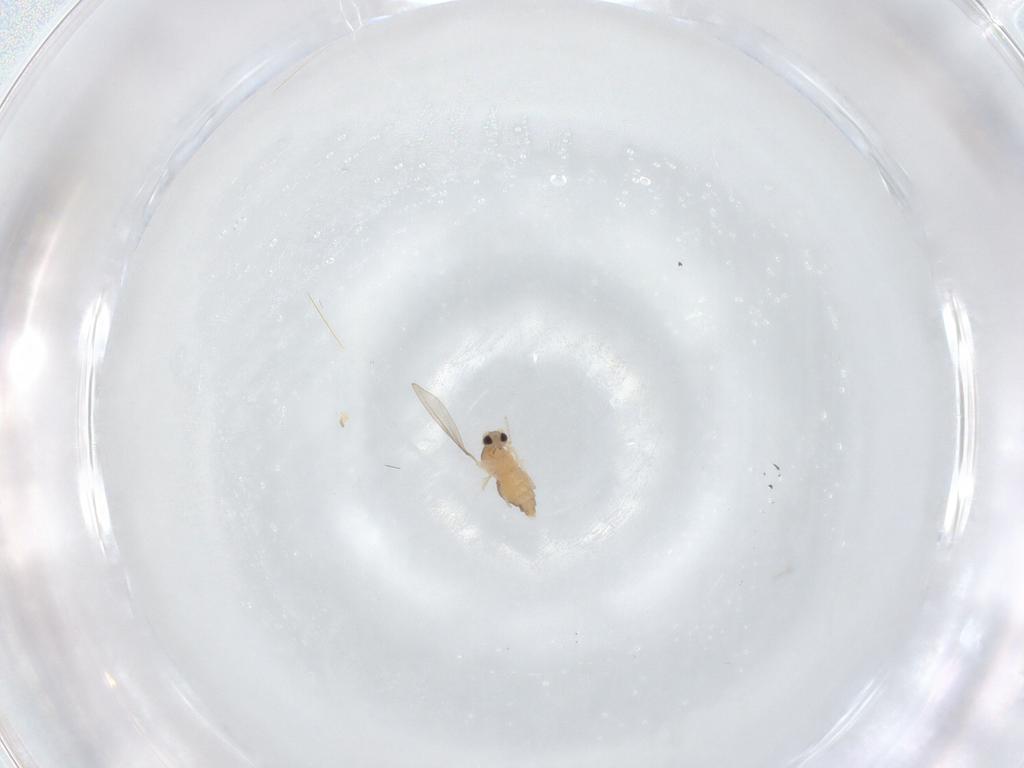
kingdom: Animalia
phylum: Arthropoda
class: Insecta
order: Diptera
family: Cecidomyiidae
